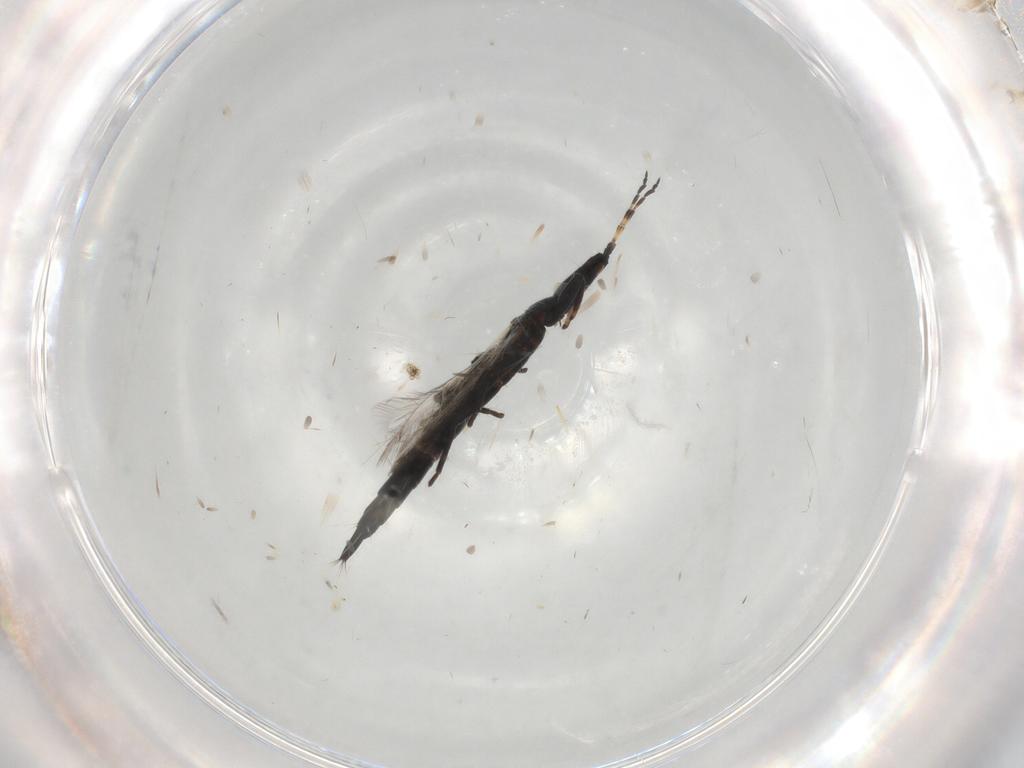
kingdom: Animalia
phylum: Arthropoda
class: Insecta
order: Thysanoptera
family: Phlaeothripidae
